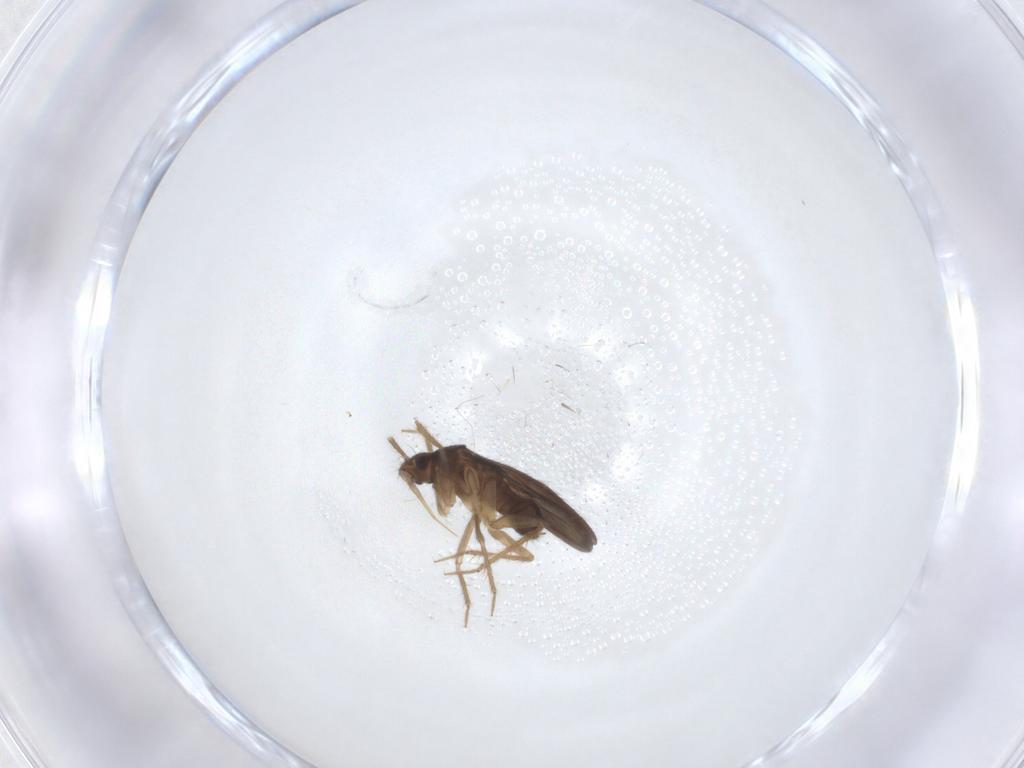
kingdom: Animalia
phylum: Arthropoda
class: Insecta
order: Hemiptera
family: Ceratocombidae
